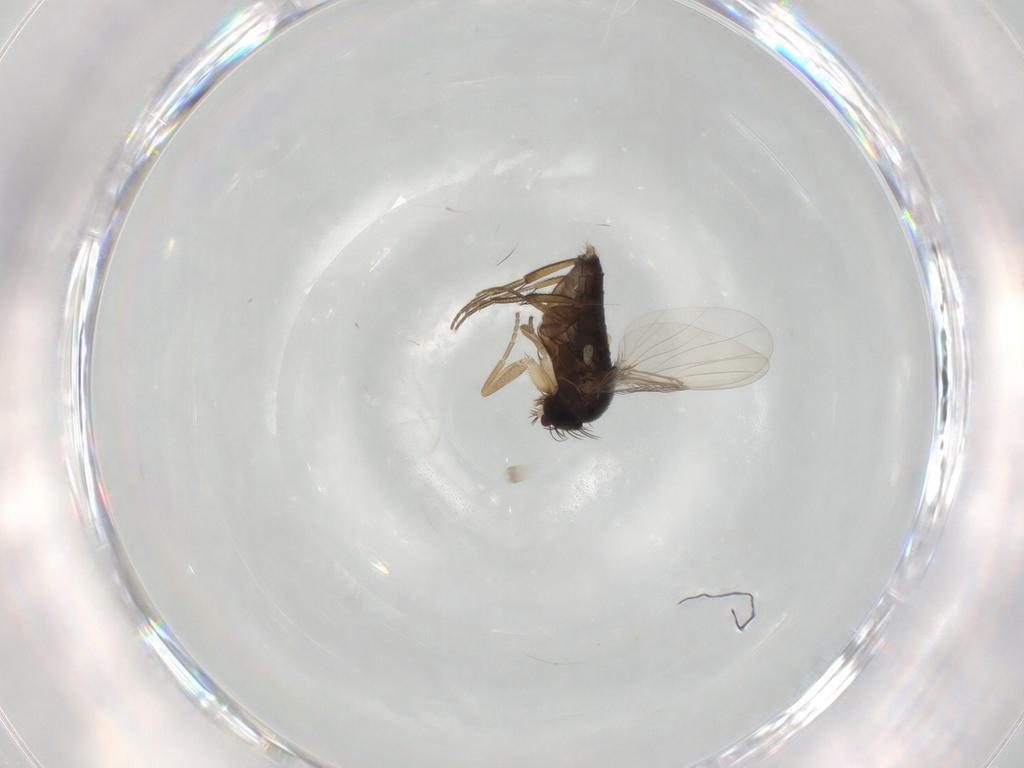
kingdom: Animalia
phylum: Arthropoda
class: Insecta
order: Diptera
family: Phoridae
